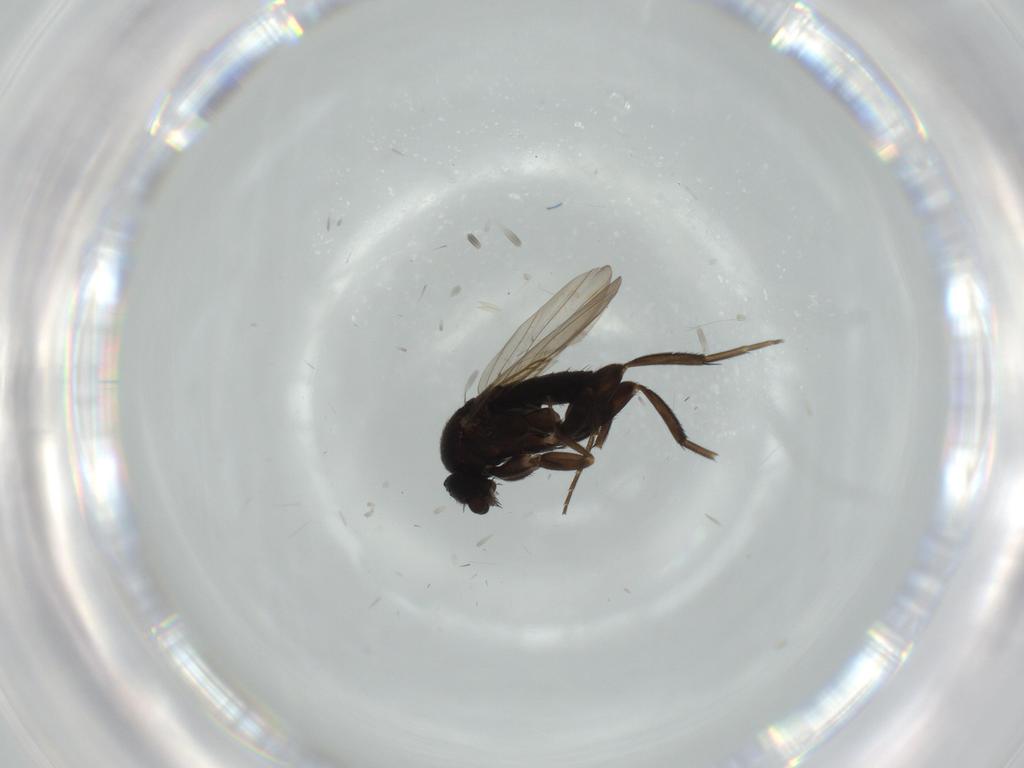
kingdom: Animalia
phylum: Arthropoda
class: Insecta
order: Diptera
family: Phoridae
